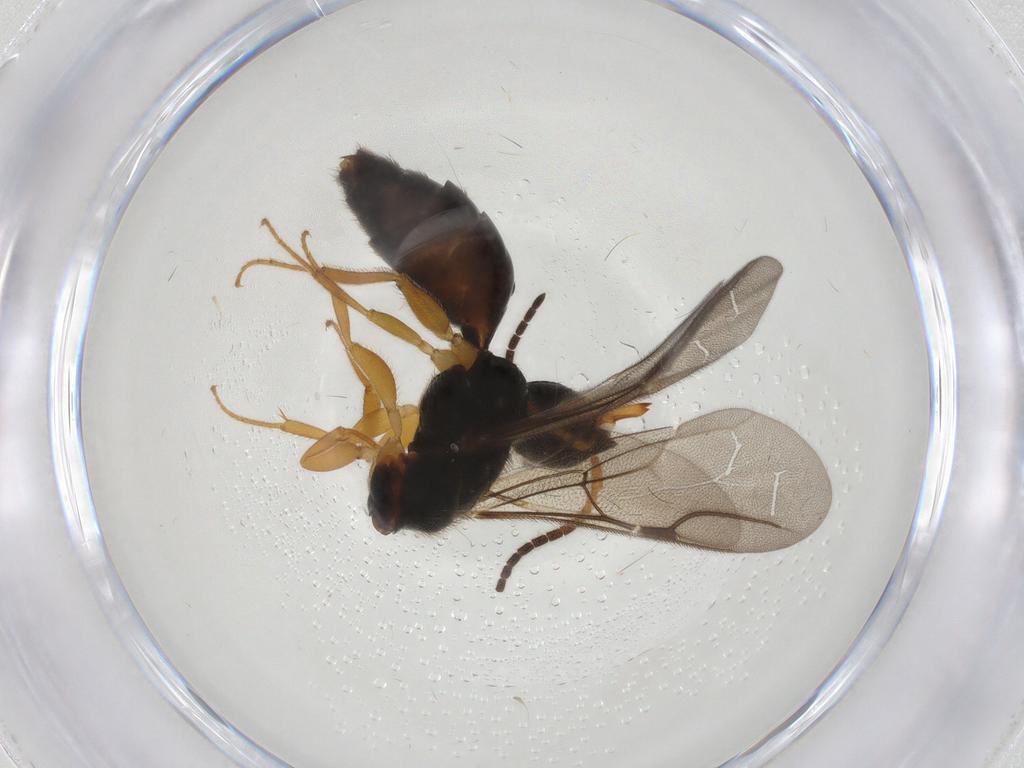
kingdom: Animalia
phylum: Arthropoda
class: Insecta
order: Hymenoptera
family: Bethylidae
